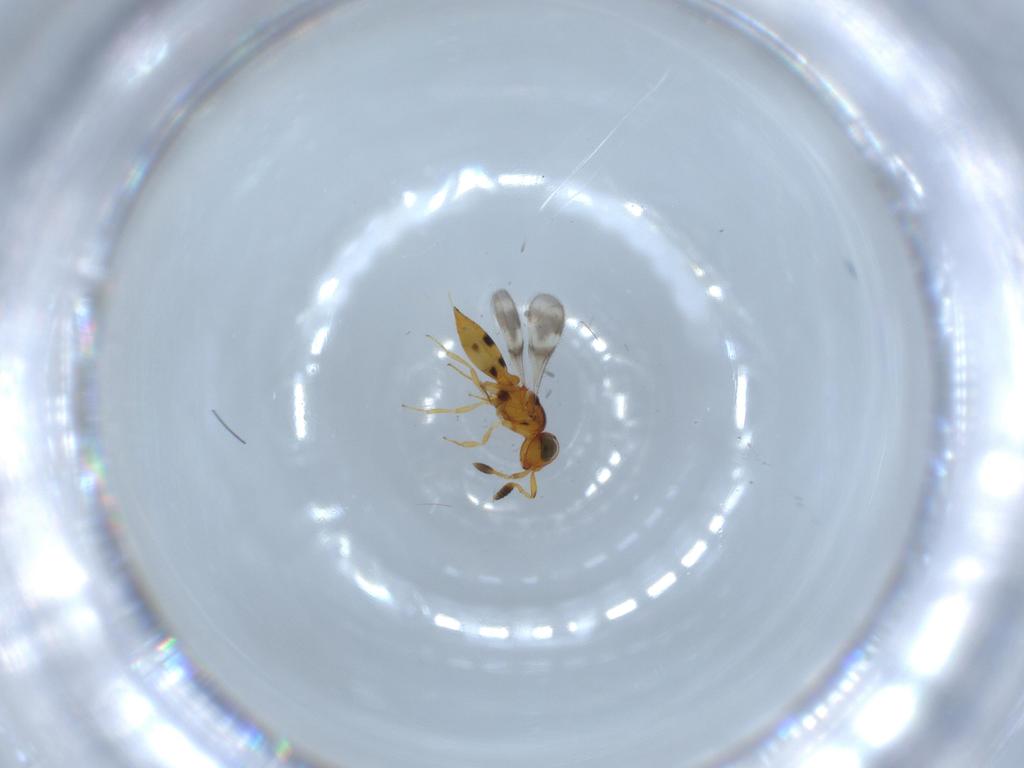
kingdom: Animalia
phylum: Arthropoda
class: Insecta
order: Hymenoptera
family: Scelionidae
